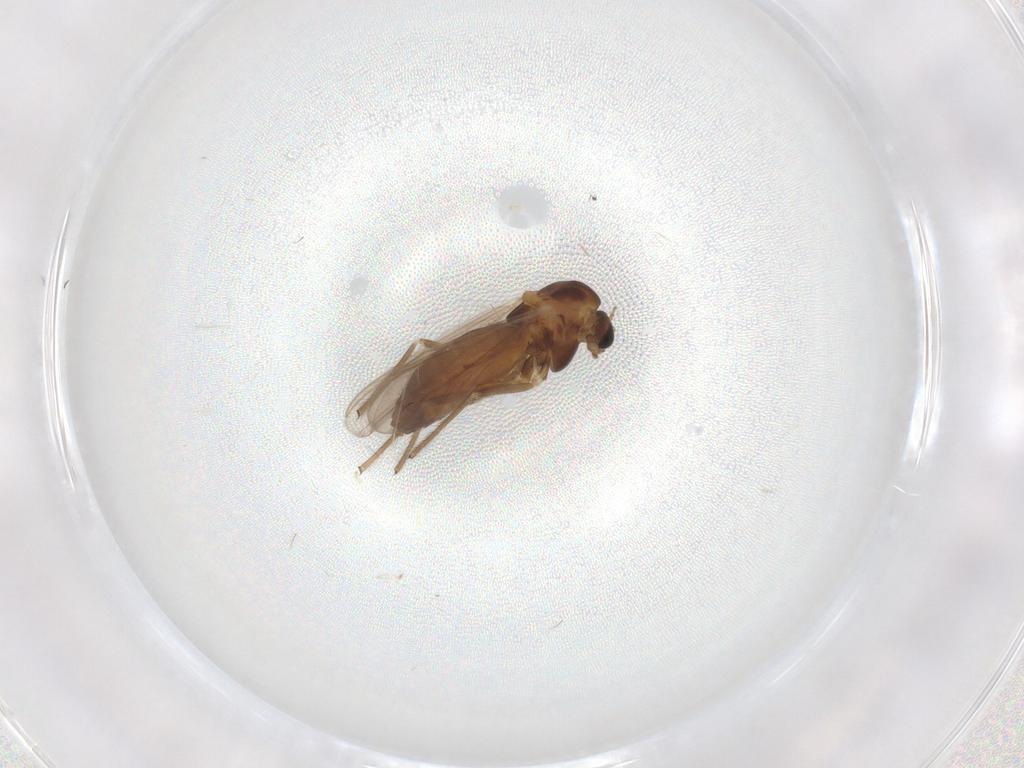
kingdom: Animalia
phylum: Arthropoda
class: Insecta
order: Diptera
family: Chironomidae
